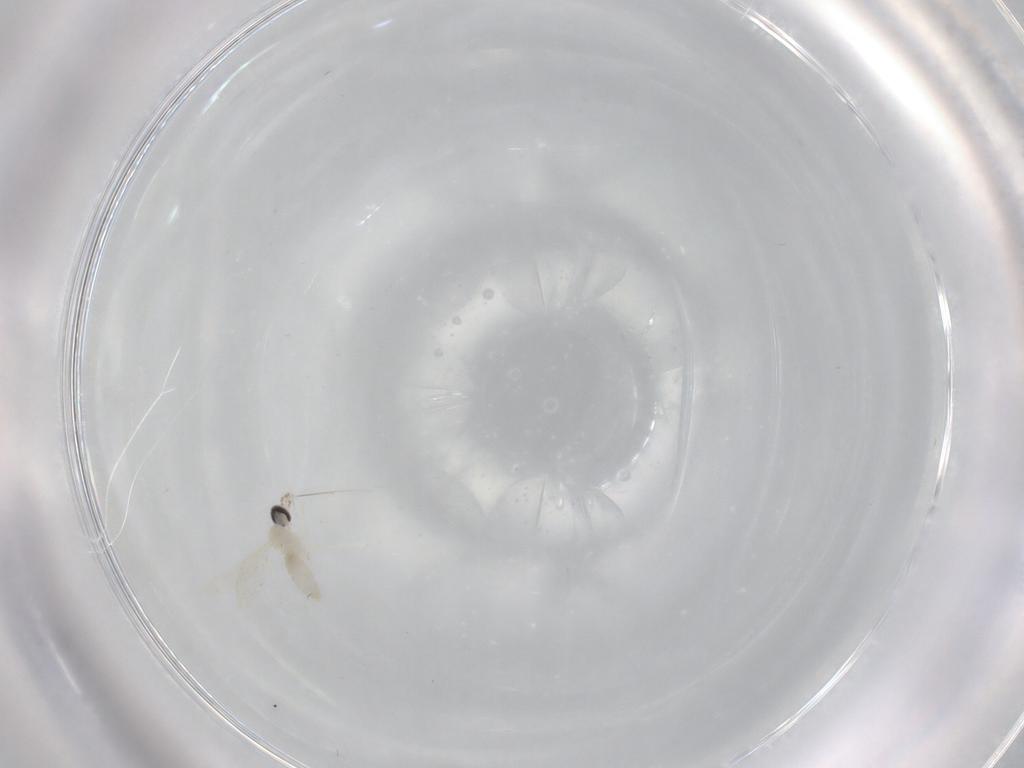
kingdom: Animalia
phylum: Arthropoda
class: Insecta
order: Diptera
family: Cecidomyiidae
